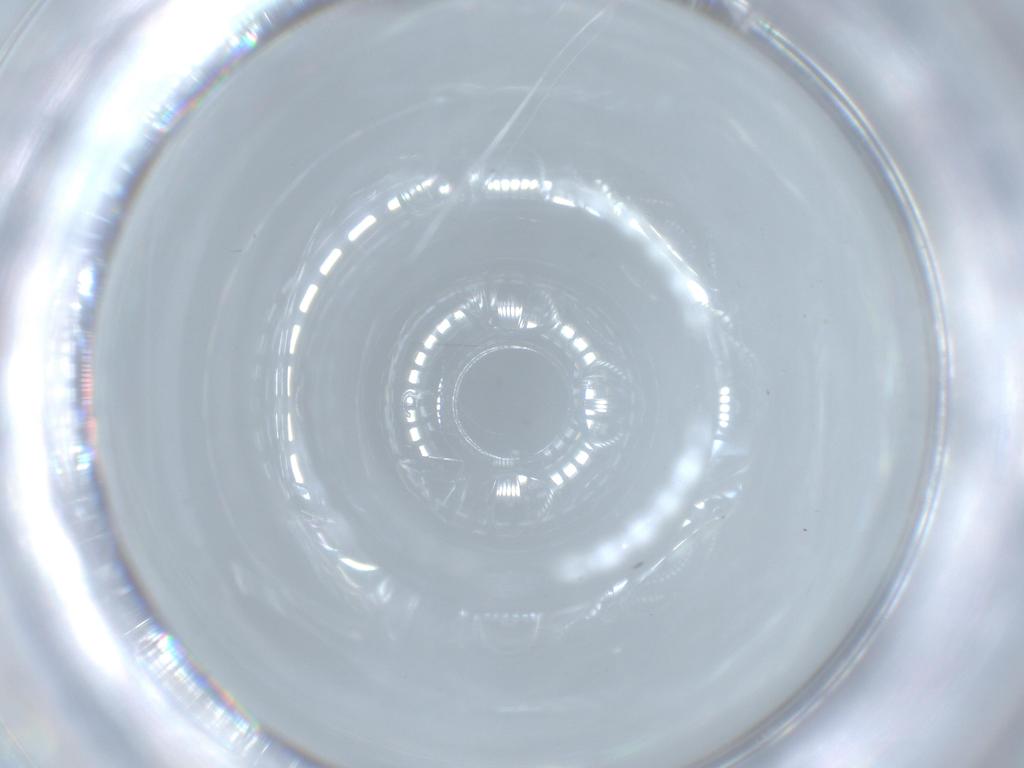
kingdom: Animalia
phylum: Arthropoda
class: Insecta
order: Hymenoptera
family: Ceraphronidae
